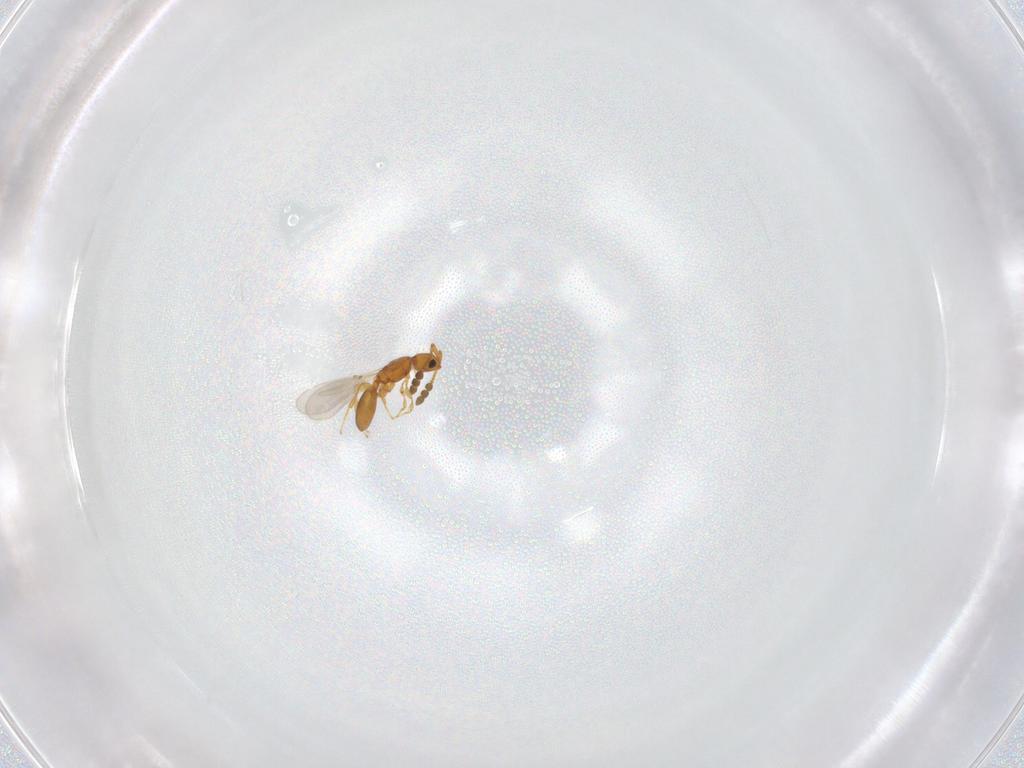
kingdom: Animalia
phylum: Arthropoda
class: Insecta
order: Hymenoptera
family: Diapriidae
